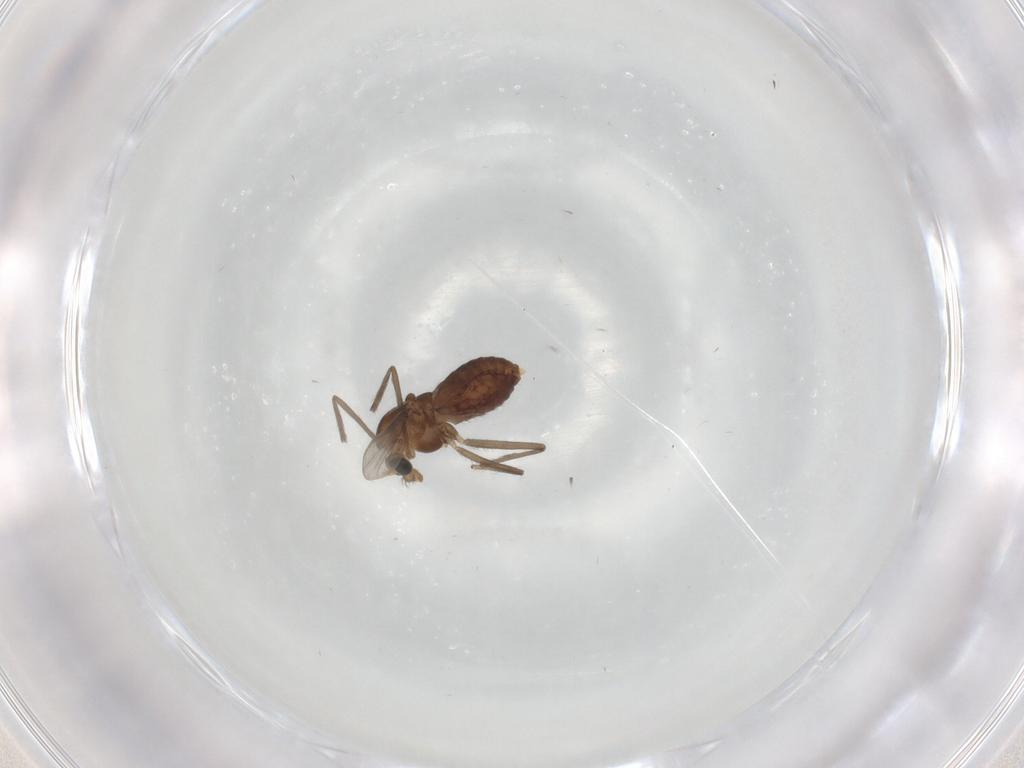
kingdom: Animalia
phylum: Arthropoda
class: Insecta
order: Diptera
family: Chironomidae
